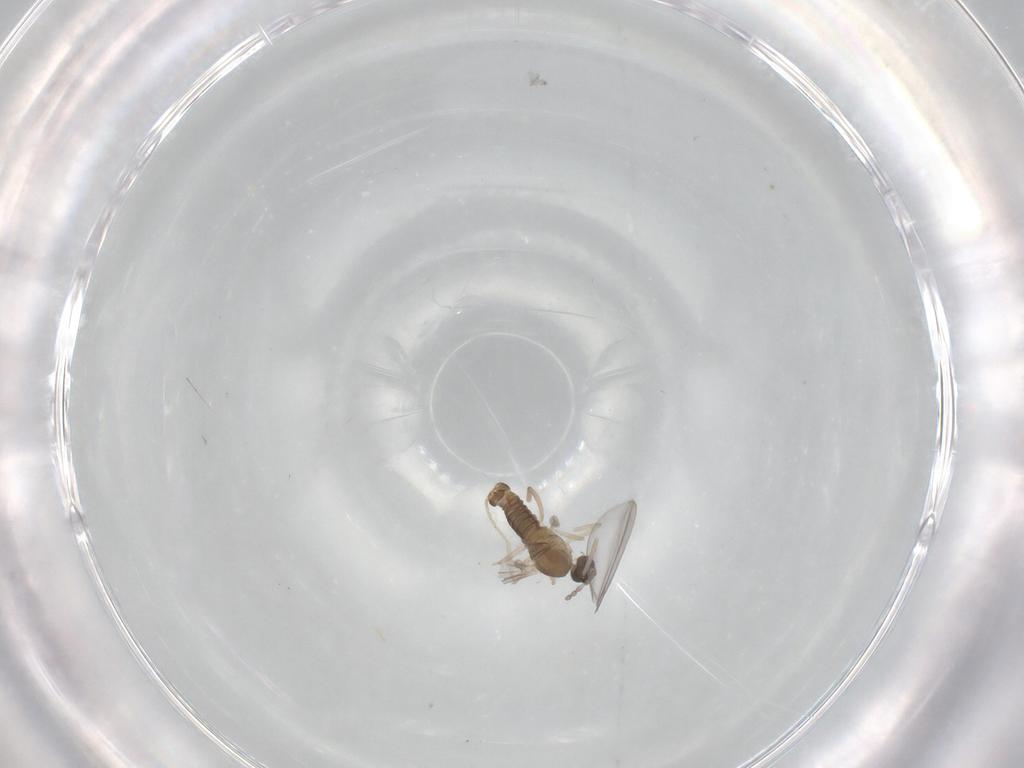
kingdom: Animalia
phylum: Arthropoda
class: Insecta
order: Diptera
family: Cecidomyiidae
